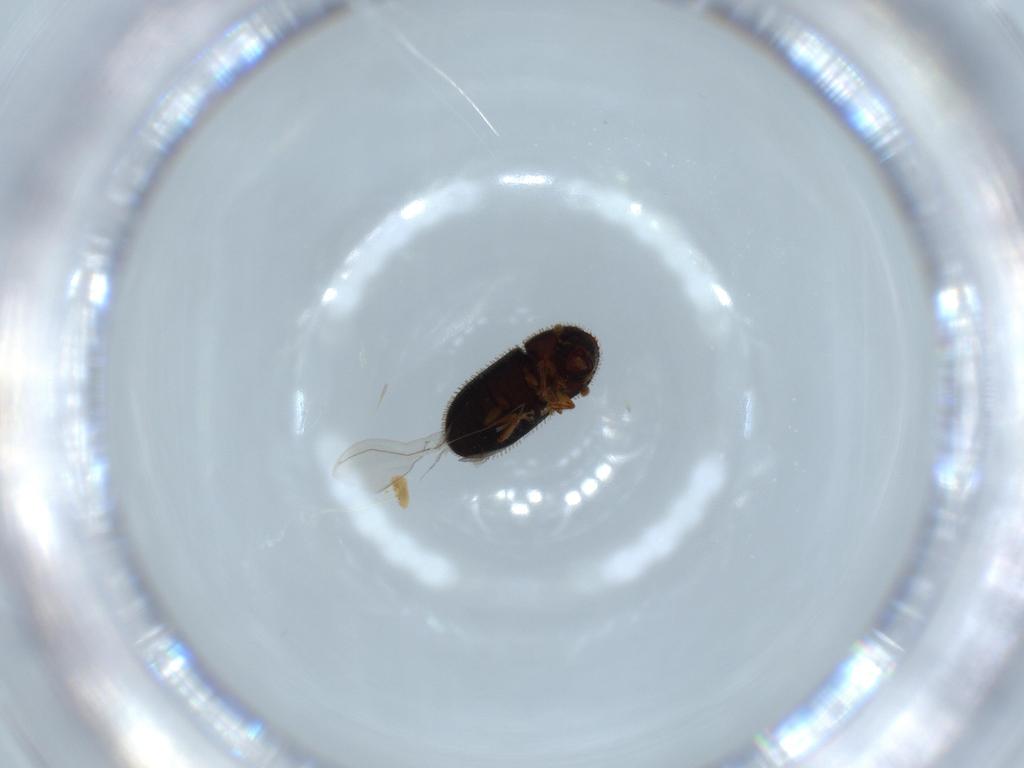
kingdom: Animalia
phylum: Arthropoda
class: Insecta
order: Coleoptera
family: Curculionidae
